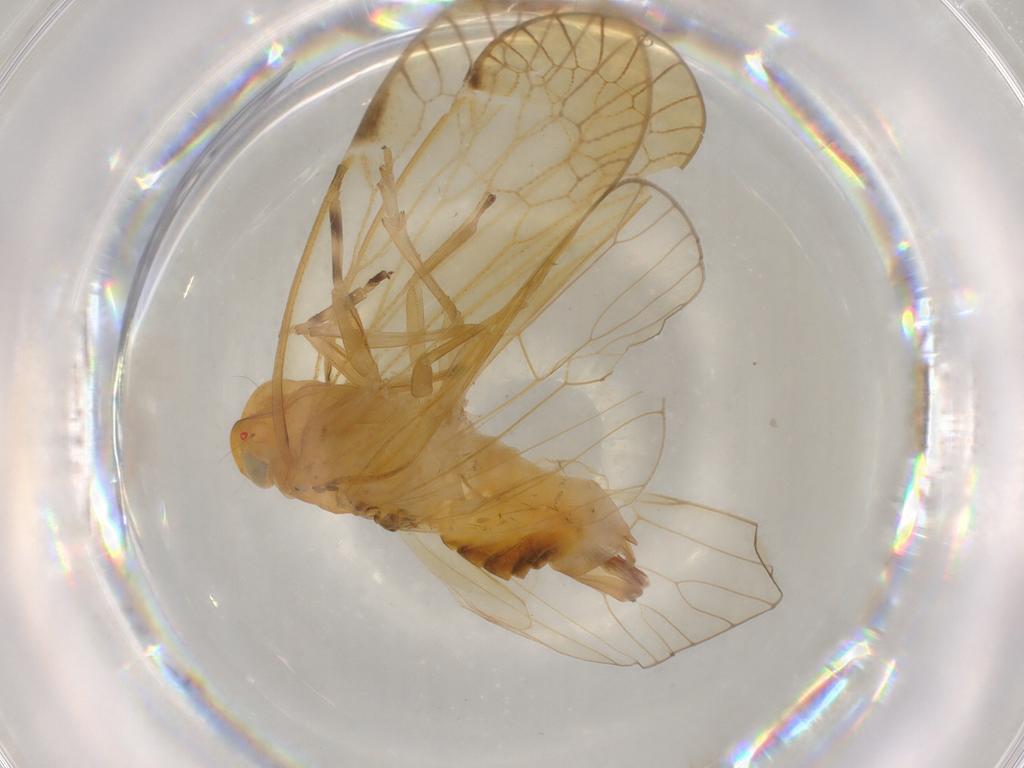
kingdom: Animalia
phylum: Arthropoda
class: Insecta
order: Hemiptera
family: Cixiidae
